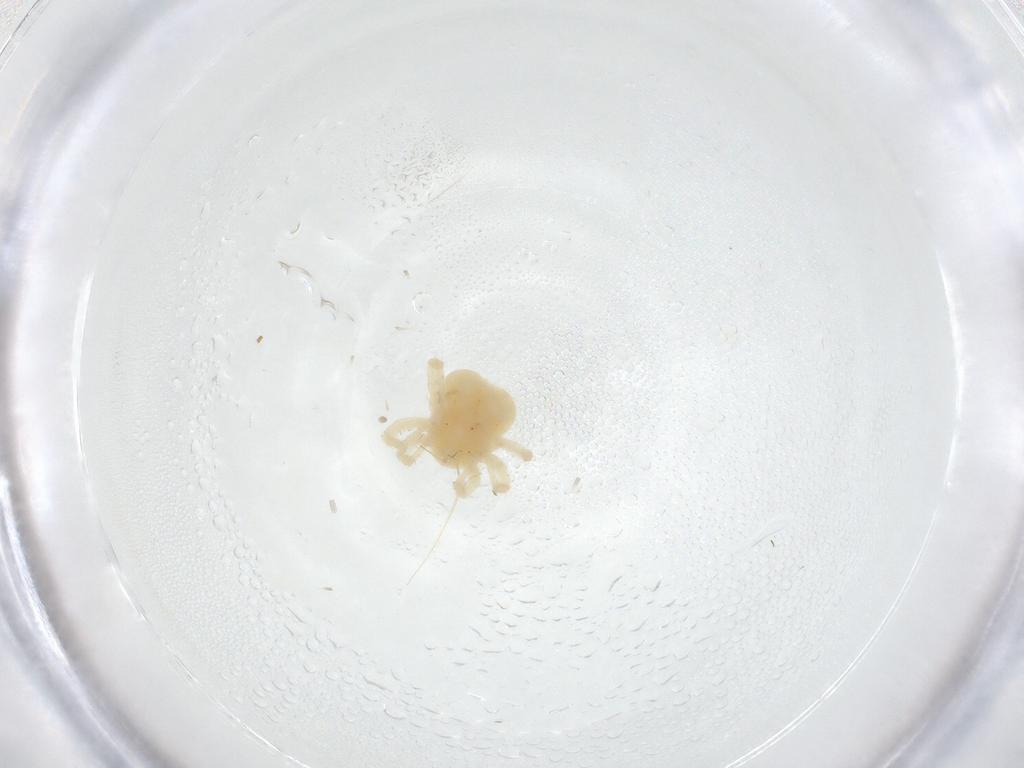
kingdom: Animalia
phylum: Arthropoda
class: Arachnida
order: Trombidiformes
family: Anystidae
